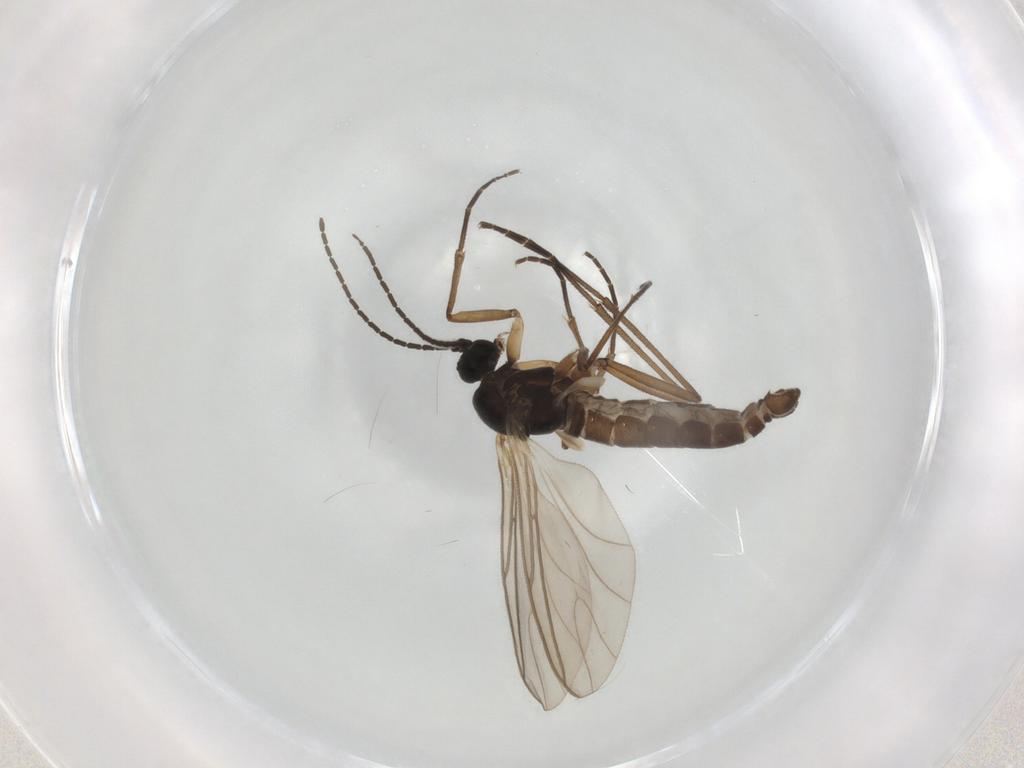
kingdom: Animalia
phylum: Arthropoda
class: Insecta
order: Diptera
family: Sciaridae
